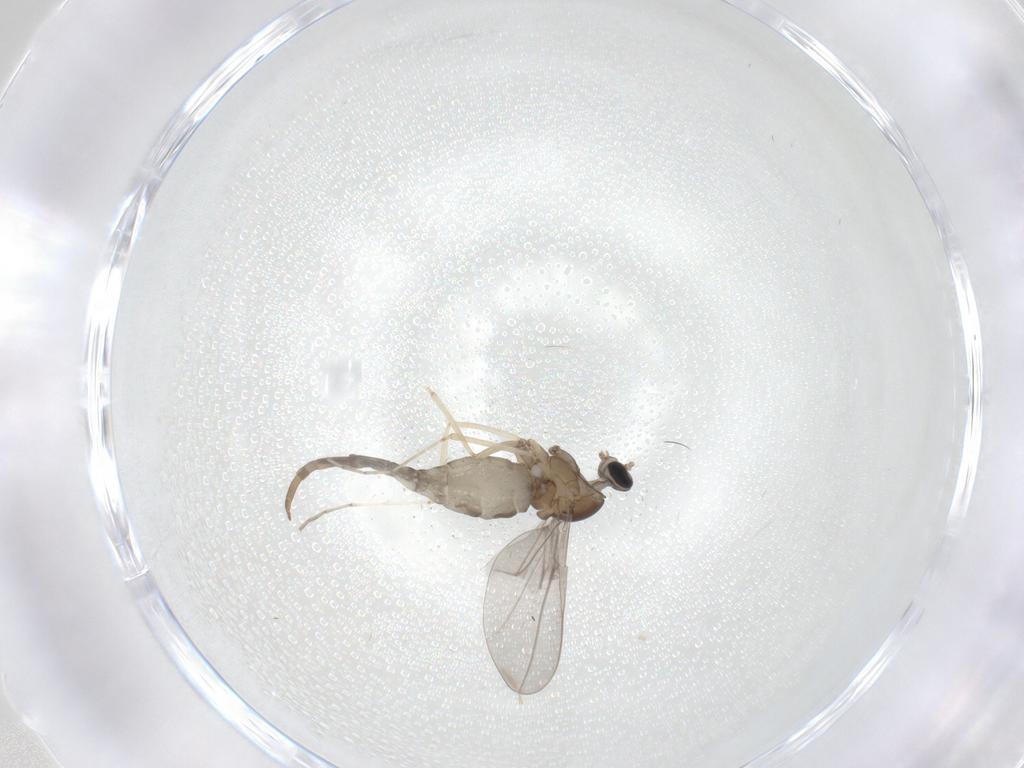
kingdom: Animalia
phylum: Arthropoda
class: Insecta
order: Diptera
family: Cecidomyiidae
